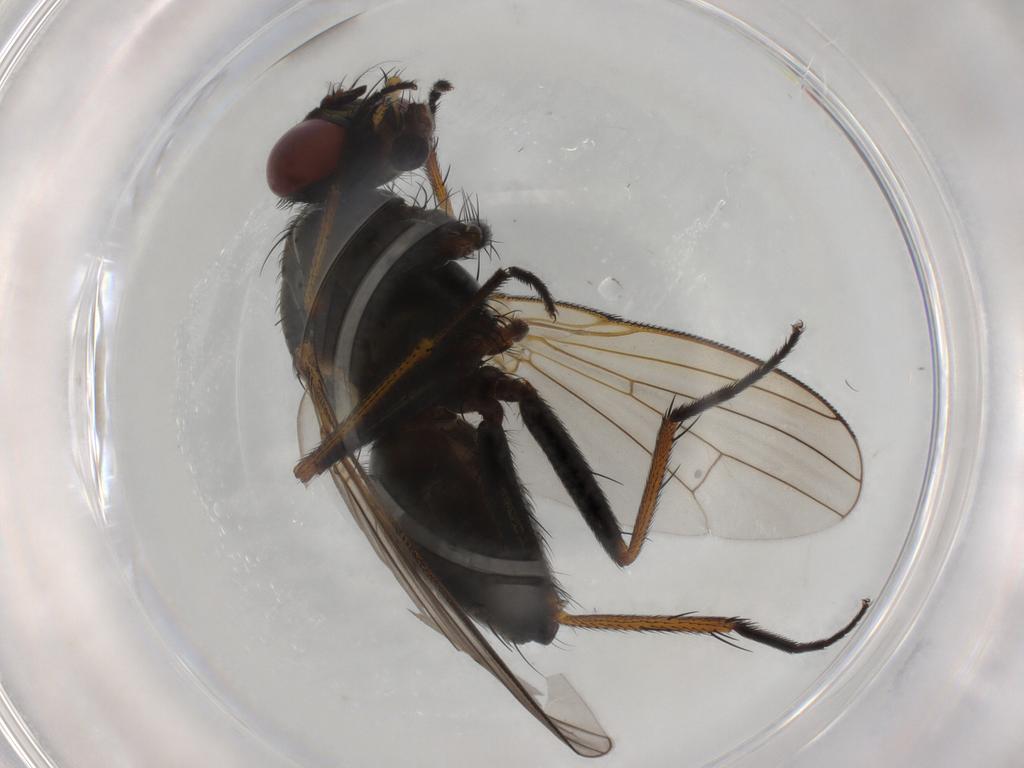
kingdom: Animalia
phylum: Arthropoda
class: Insecta
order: Diptera
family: Muscidae
